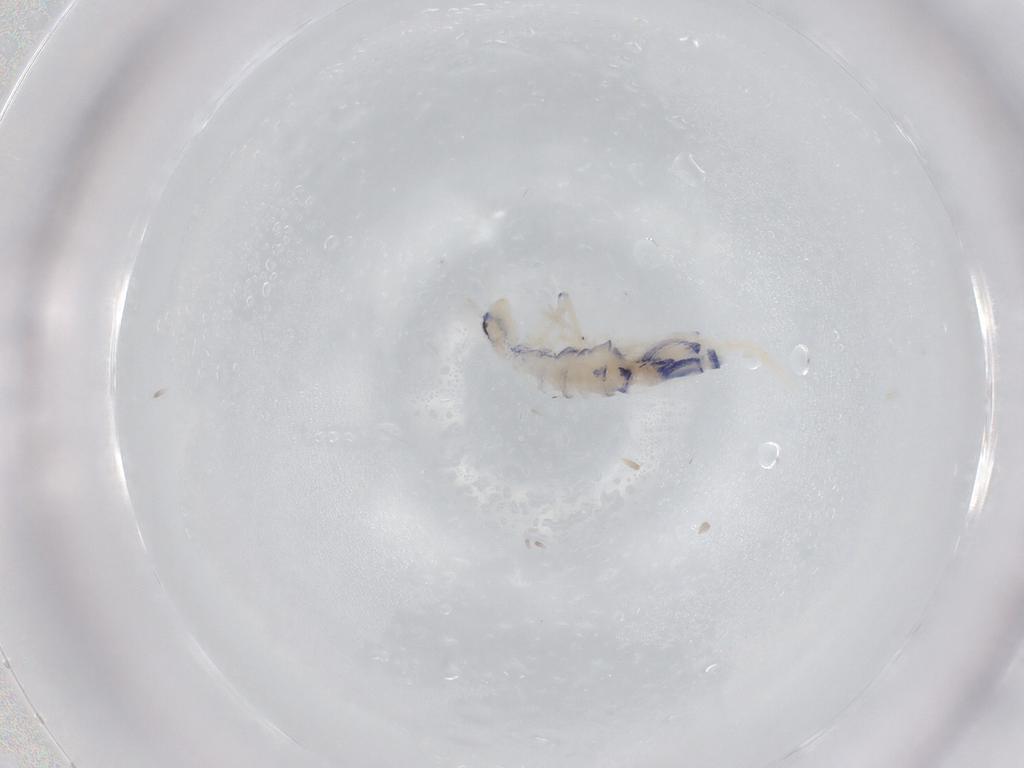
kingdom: Animalia
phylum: Arthropoda
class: Collembola
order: Entomobryomorpha
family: Entomobryidae
